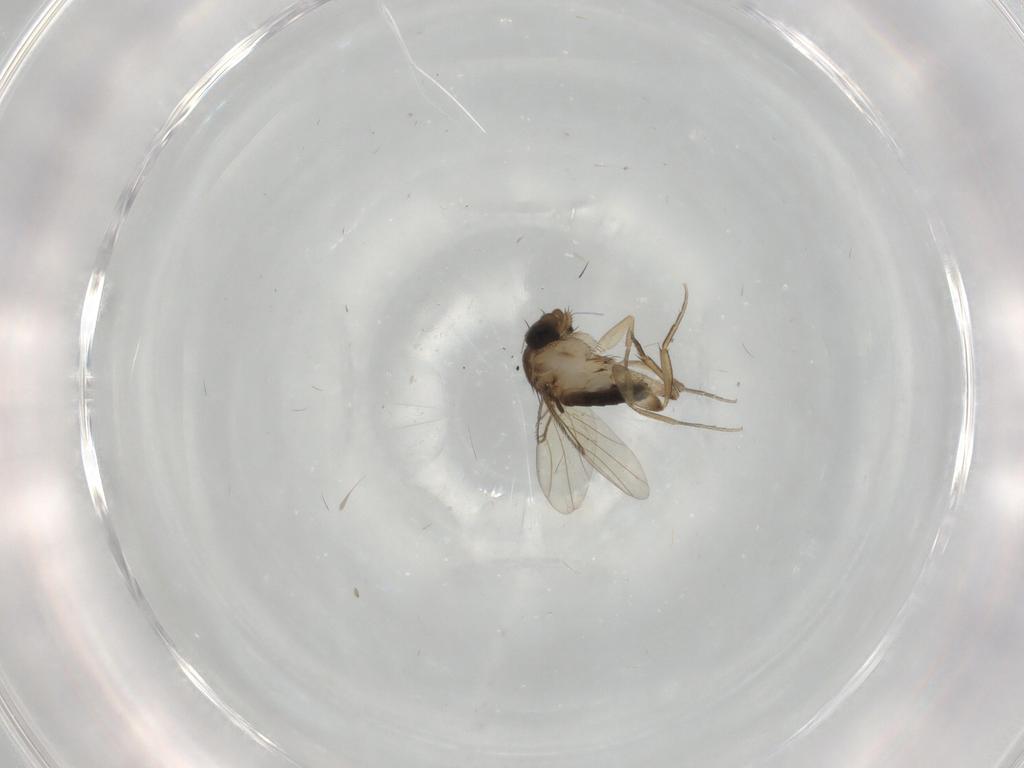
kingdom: Animalia
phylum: Arthropoda
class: Insecta
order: Diptera
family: Phoridae
